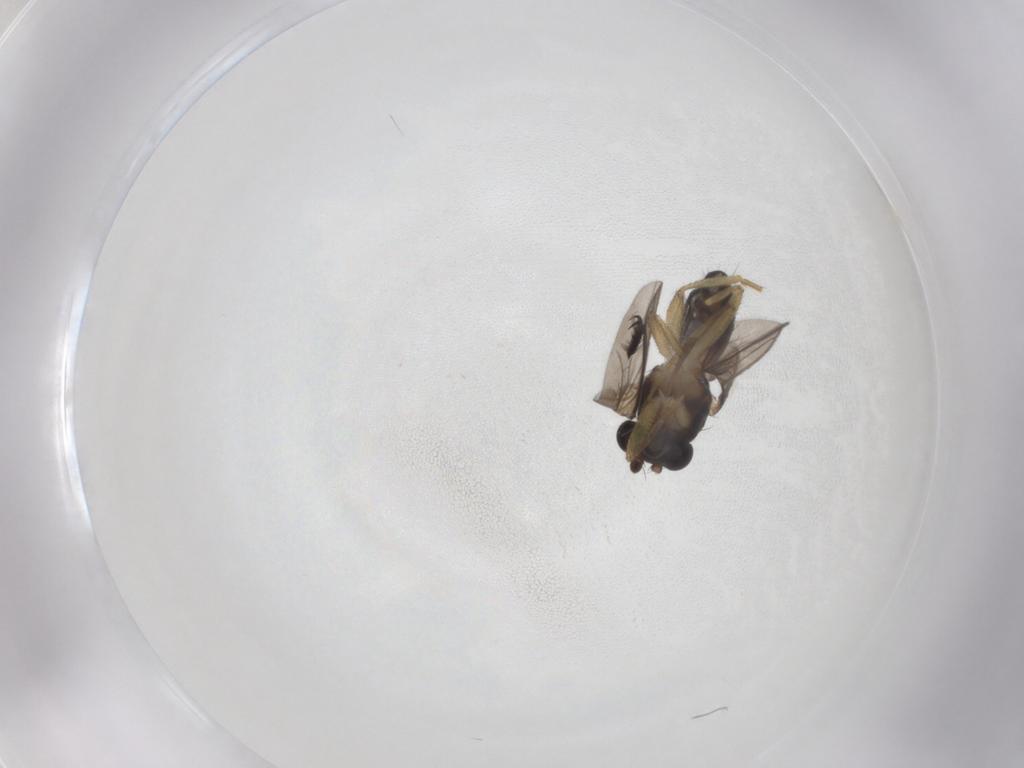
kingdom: Animalia
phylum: Arthropoda
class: Insecta
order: Diptera
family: Inbiomyiidae
